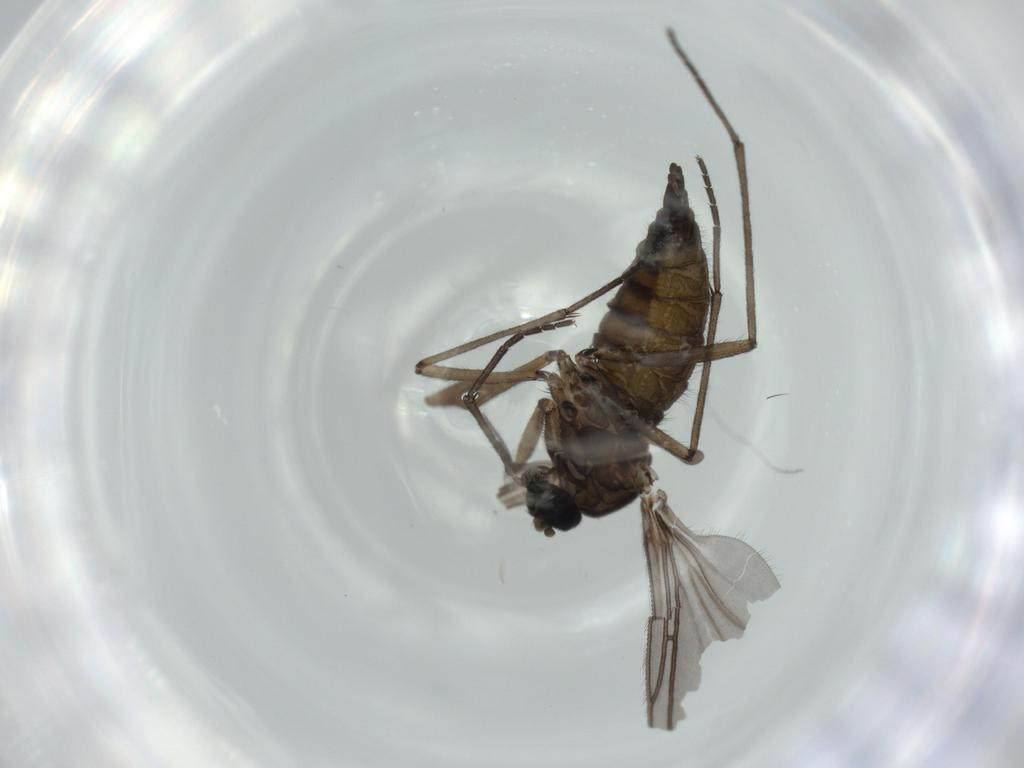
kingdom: Animalia
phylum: Arthropoda
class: Insecta
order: Diptera
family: Sciaridae
